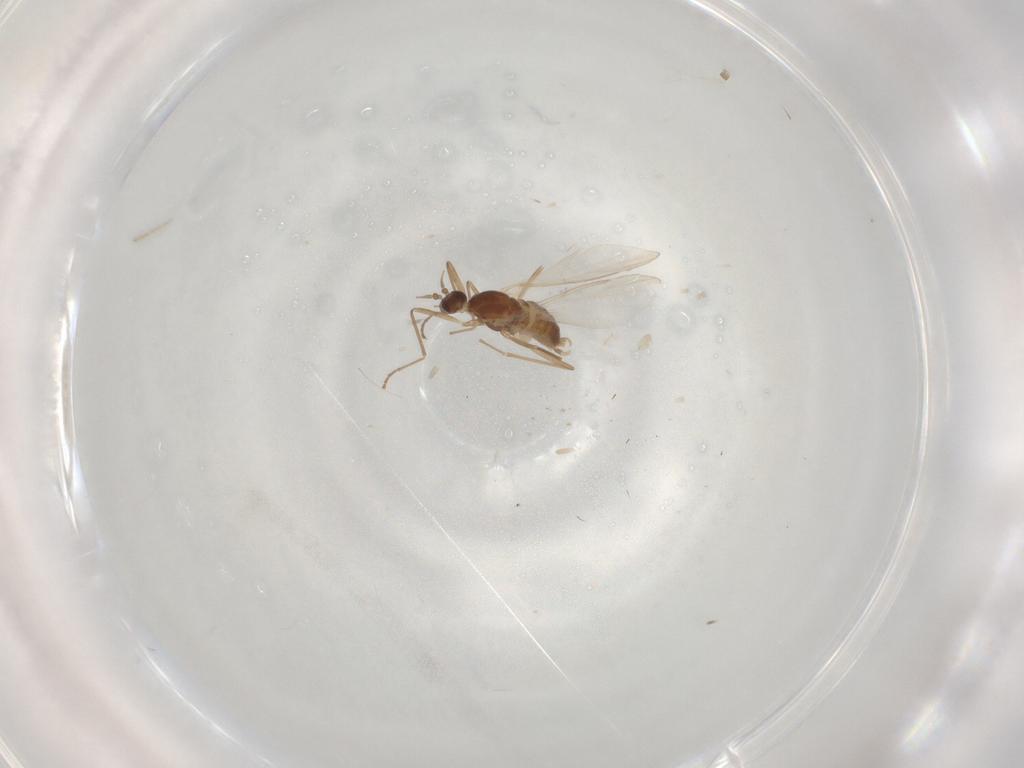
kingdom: Animalia
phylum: Arthropoda
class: Insecta
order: Diptera
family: Cecidomyiidae
